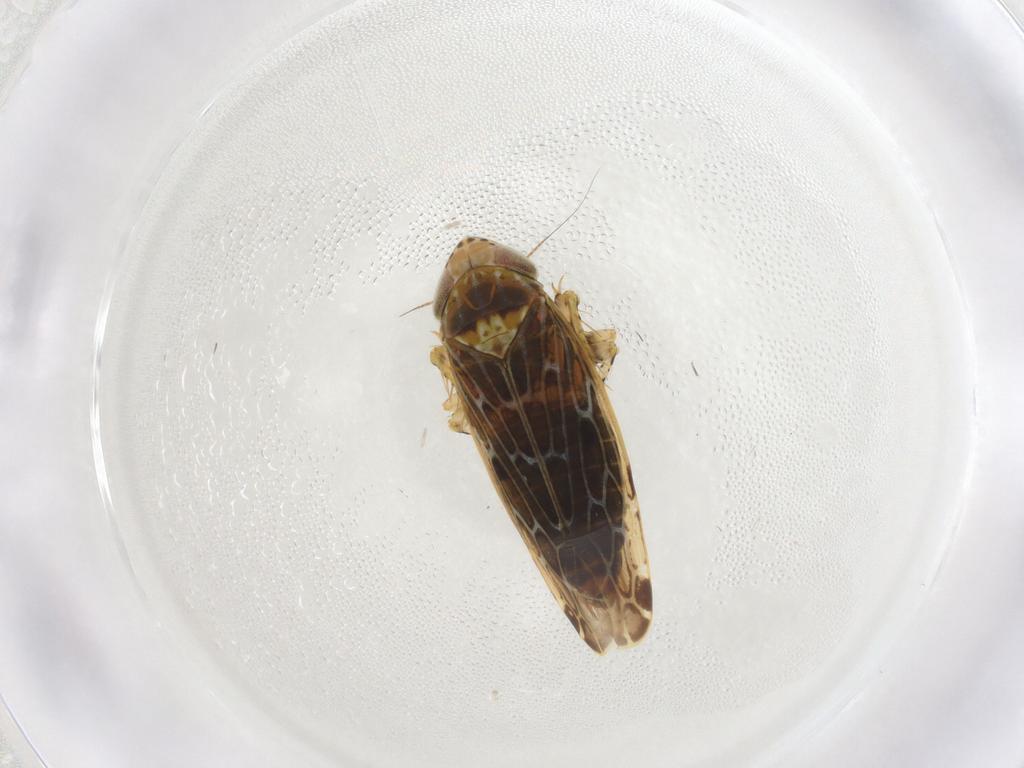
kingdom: Animalia
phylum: Arthropoda
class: Insecta
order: Hemiptera
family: Cicadellidae
